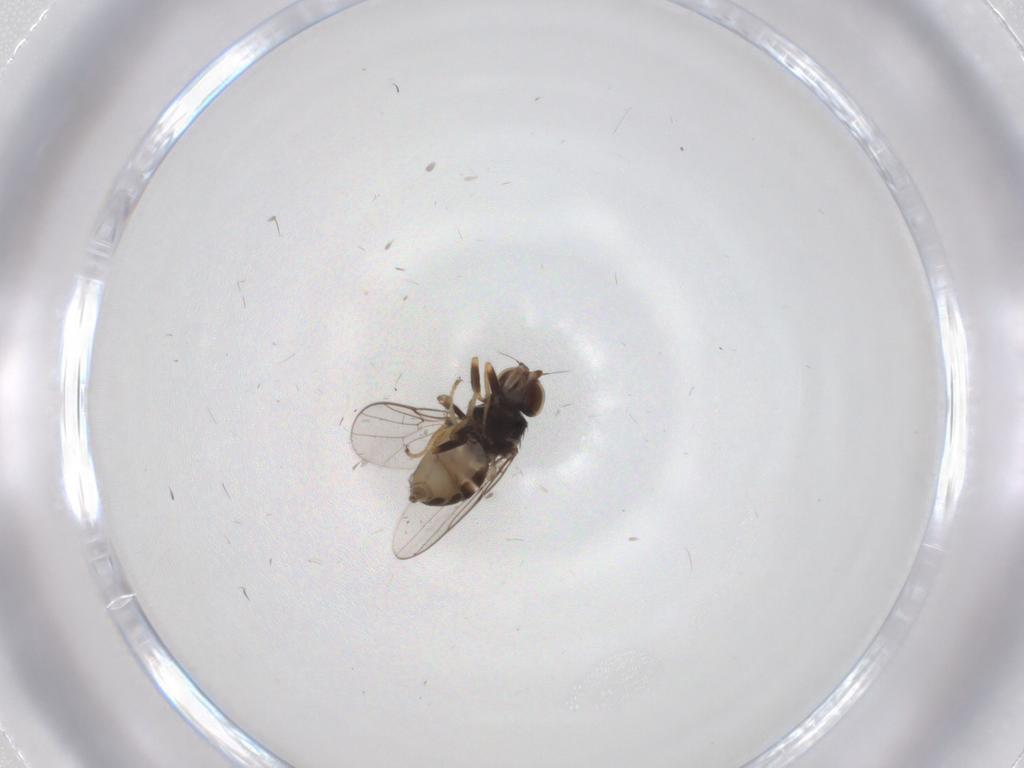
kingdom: Animalia
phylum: Arthropoda
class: Insecta
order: Diptera
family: Chloropidae
